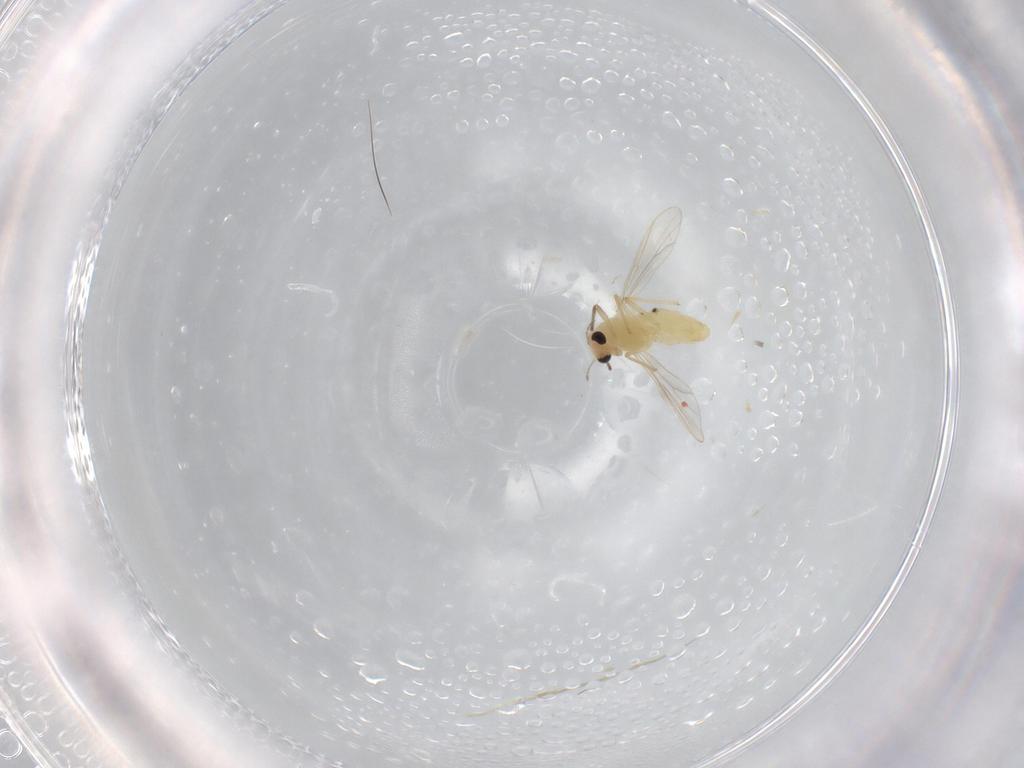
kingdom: Animalia
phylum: Arthropoda
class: Insecta
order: Diptera
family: Chironomidae
